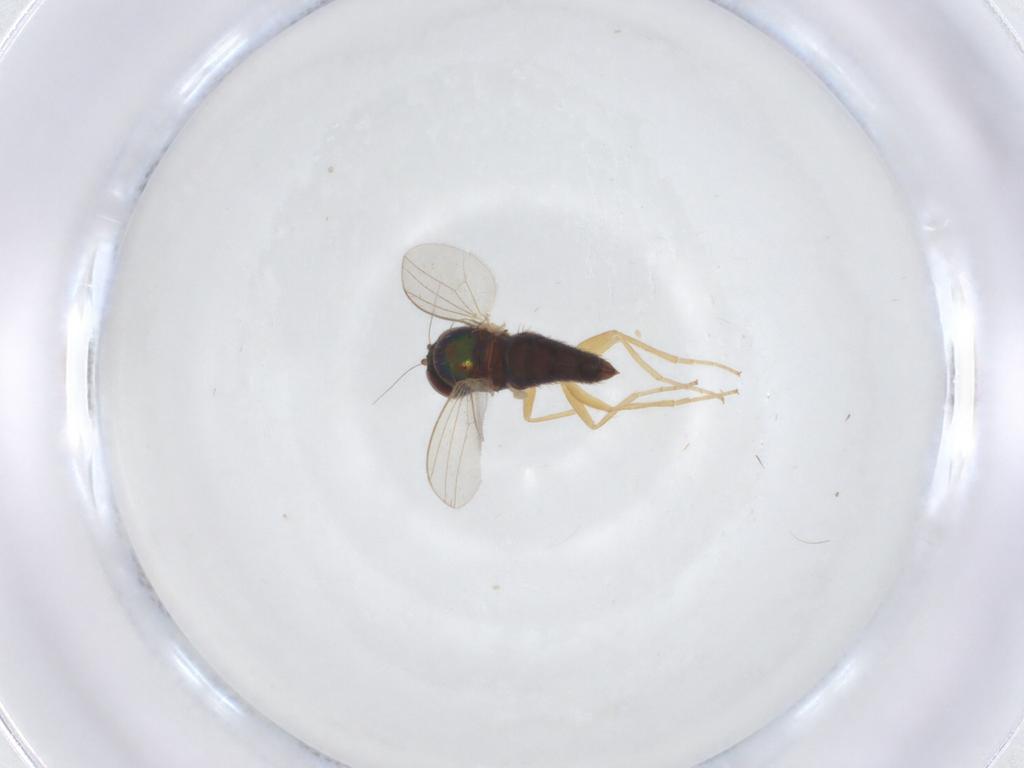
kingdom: Animalia
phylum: Arthropoda
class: Insecta
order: Diptera
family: Dolichopodidae
